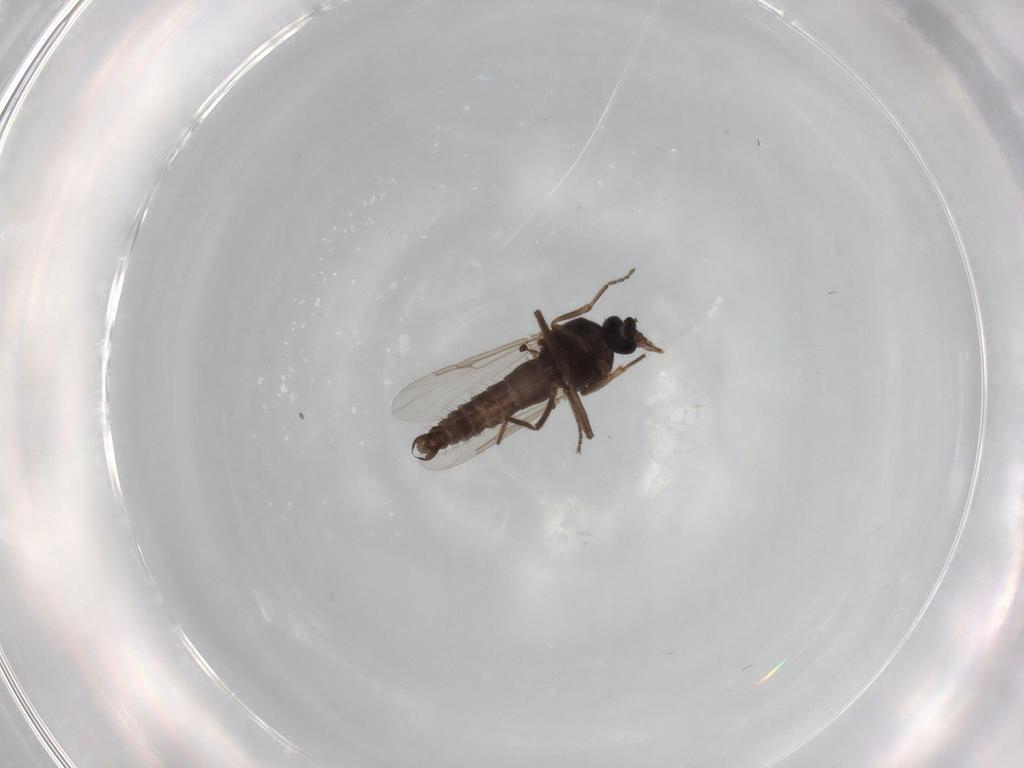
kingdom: Animalia
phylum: Arthropoda
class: Insecta
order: Diptera
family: Ceratopogonidae
